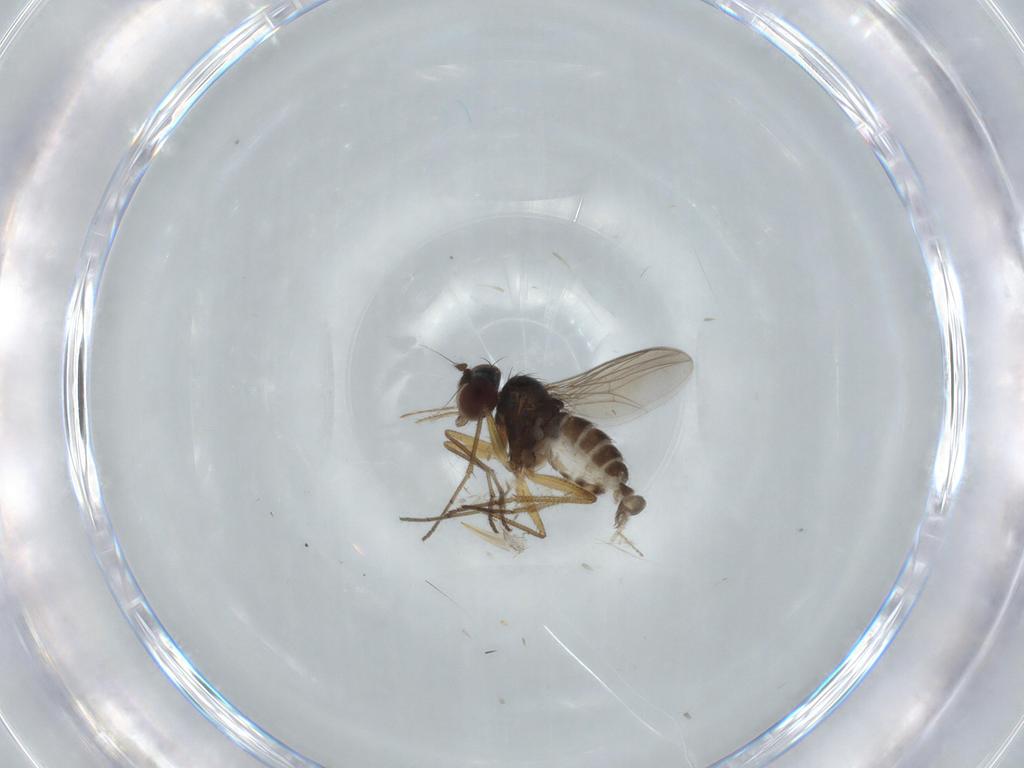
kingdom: Animalia
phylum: Arthropoda
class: Insecta
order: Diptera
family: Dolichopodidae
